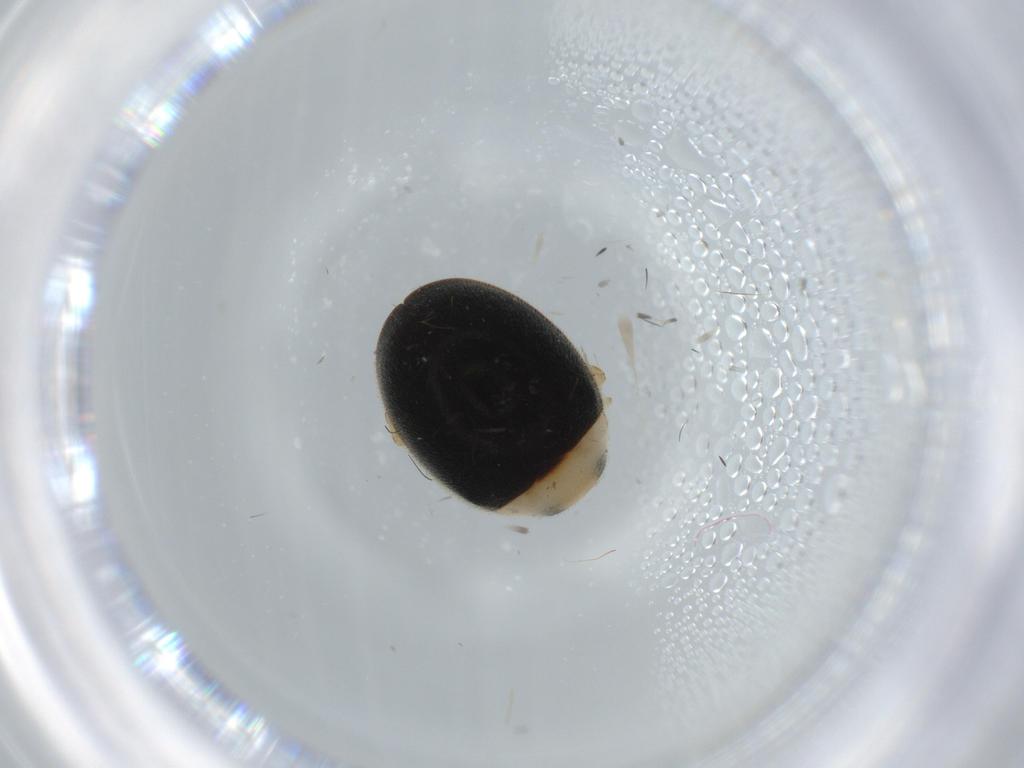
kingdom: Animalia
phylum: Arthropoda
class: Insecta
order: Coleoptera
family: Coccinellidae
